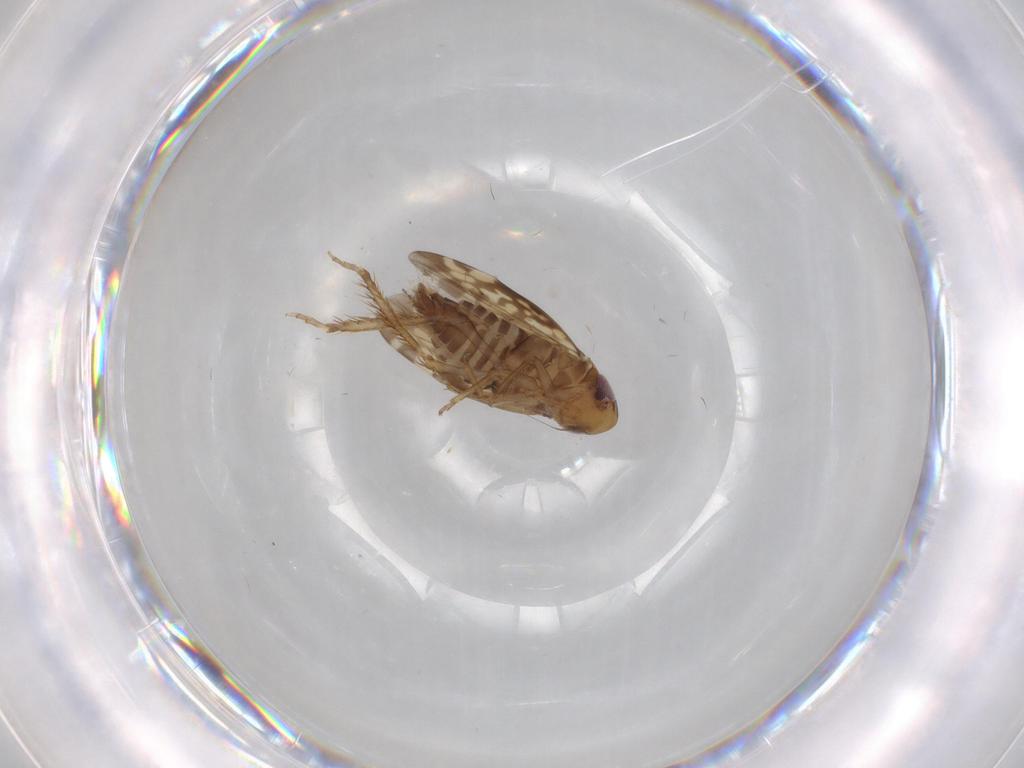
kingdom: Animalia
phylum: Arthropoda
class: Insecta
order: Hemiptera
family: Cicadellidae
